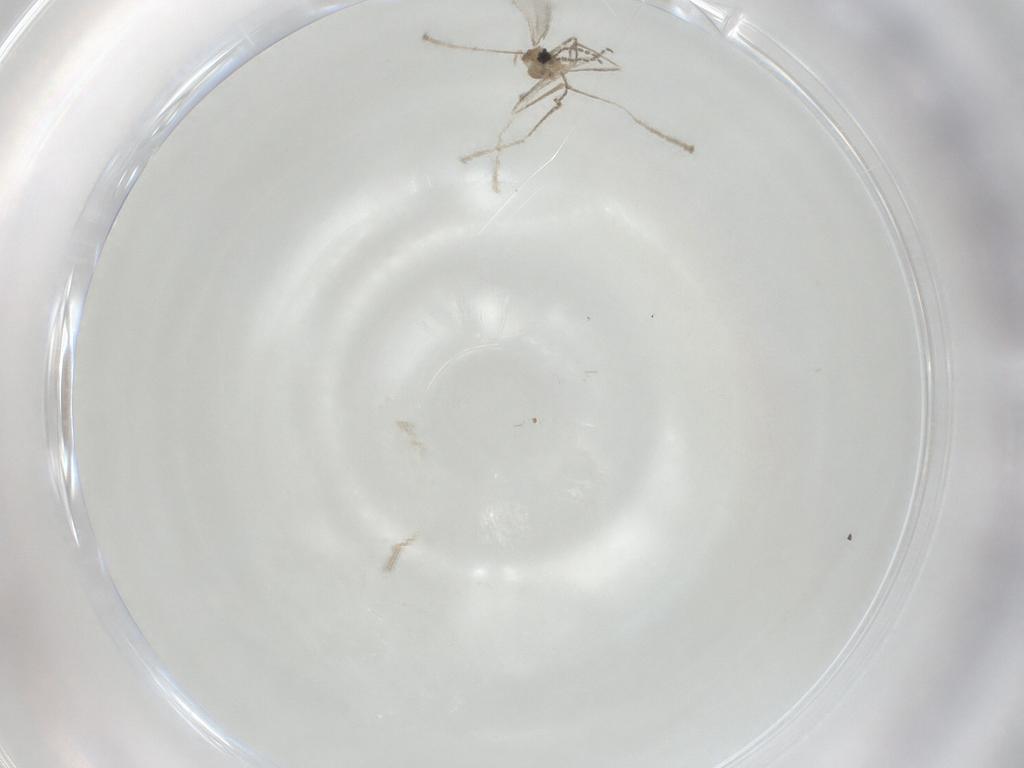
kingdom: Animalia
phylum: Arthropoda
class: Insecta
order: Diptera
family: Cecidomyiidae
